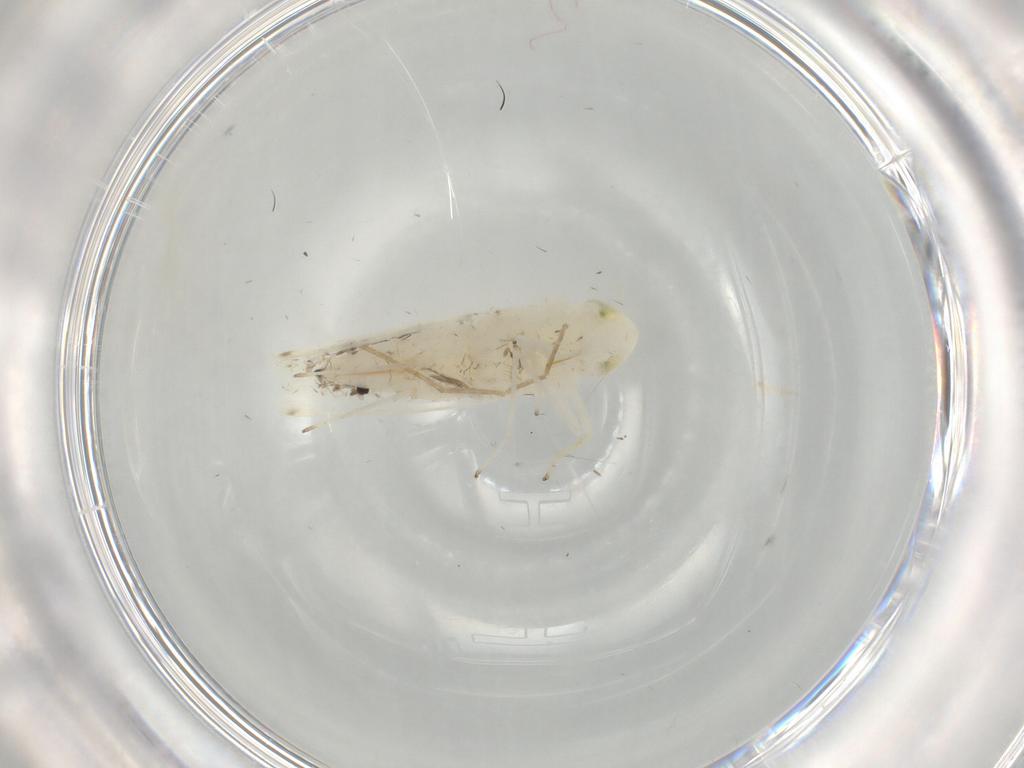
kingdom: Animalia
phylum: Arthropoda
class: Insecta
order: Hemiptera
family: Cicadellidae
